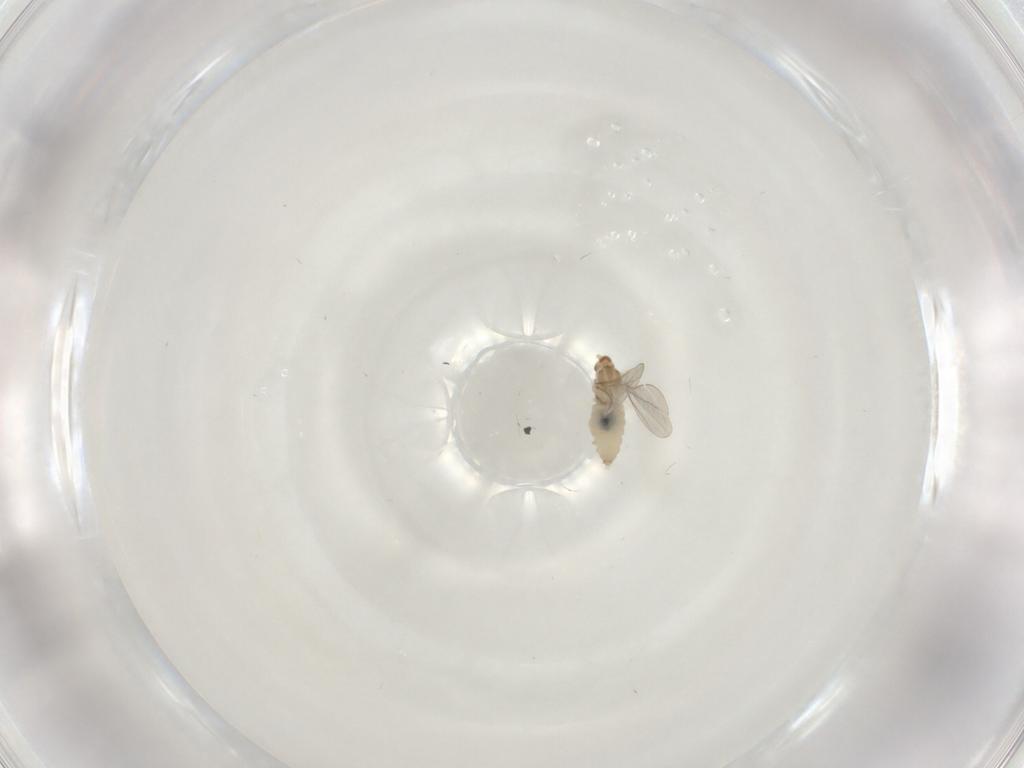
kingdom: Animalia
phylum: Arthropoda
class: Insecta
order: Diptera
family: Cecidomyiidae
